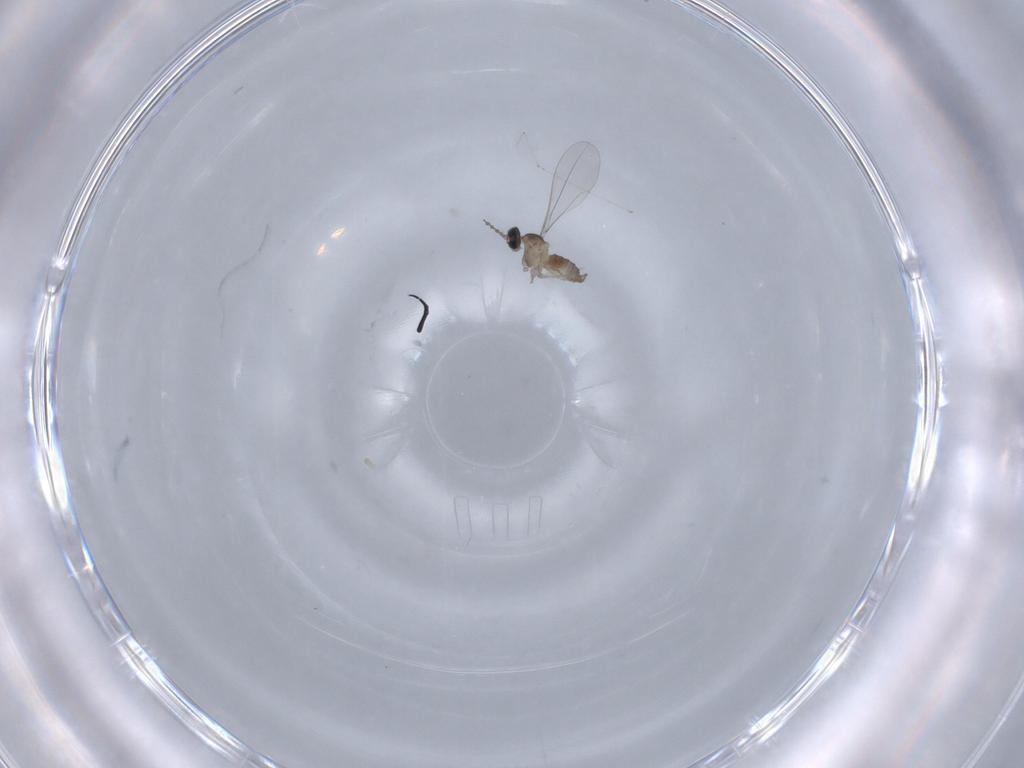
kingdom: Animalia
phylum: Arthropoda
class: Insecta
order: Diptera
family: Cecidomyiidae
